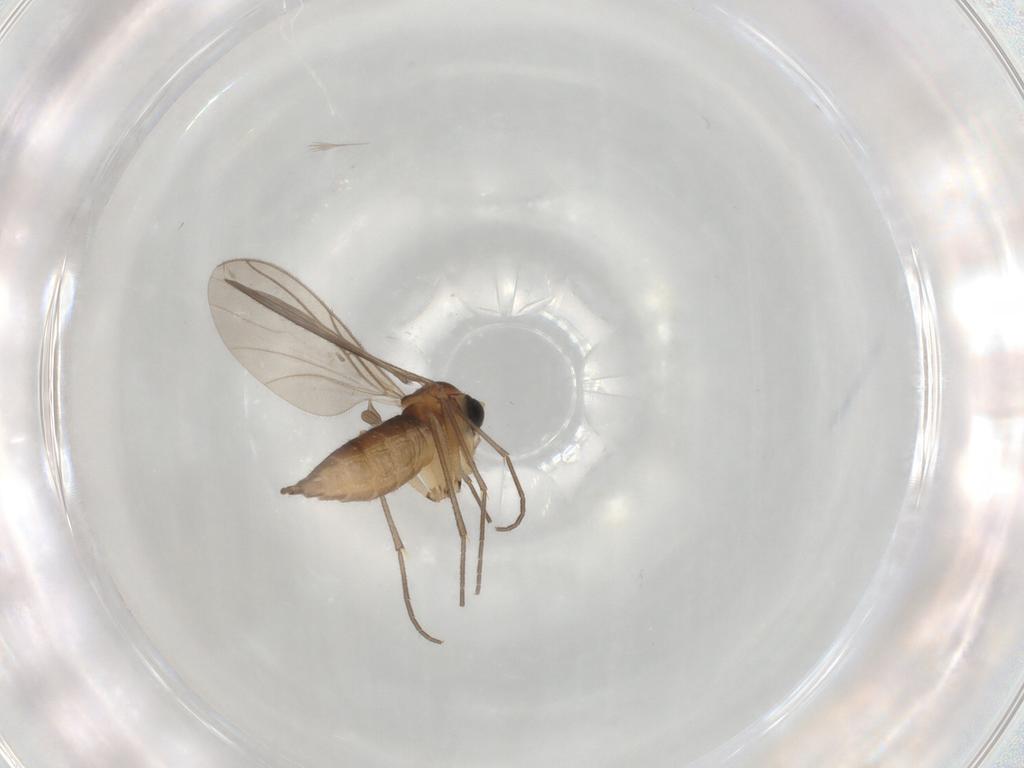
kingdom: Animalia
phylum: Arthropoda
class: Insecta
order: Diptera
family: Sciaridae
